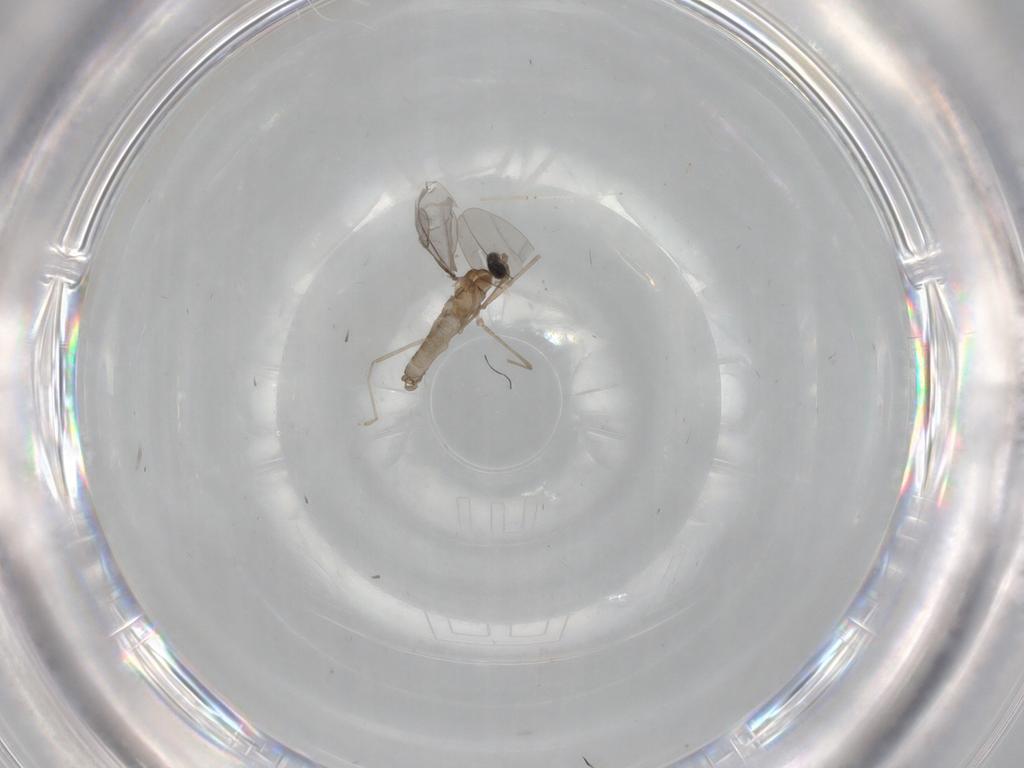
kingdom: Animalia
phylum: Arthropoda
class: Insecta
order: Diptera
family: Cecidomyiidae
